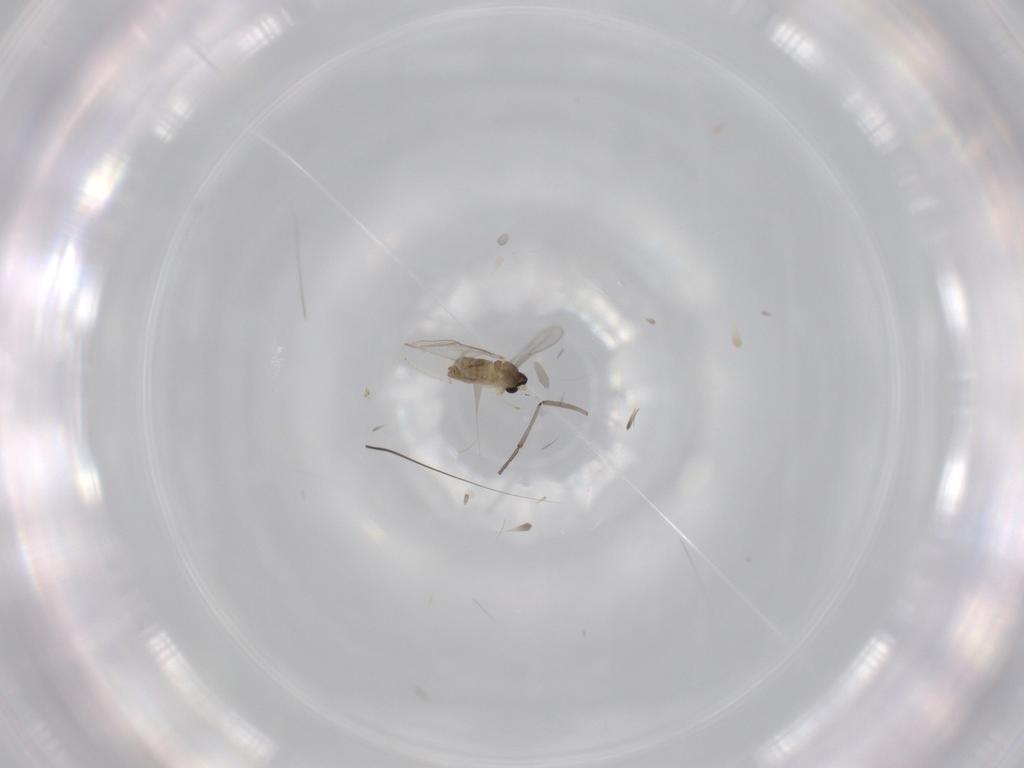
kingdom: Animalia
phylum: Arthropoda
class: Insecta
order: Diptera
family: Cecidomyiidae
